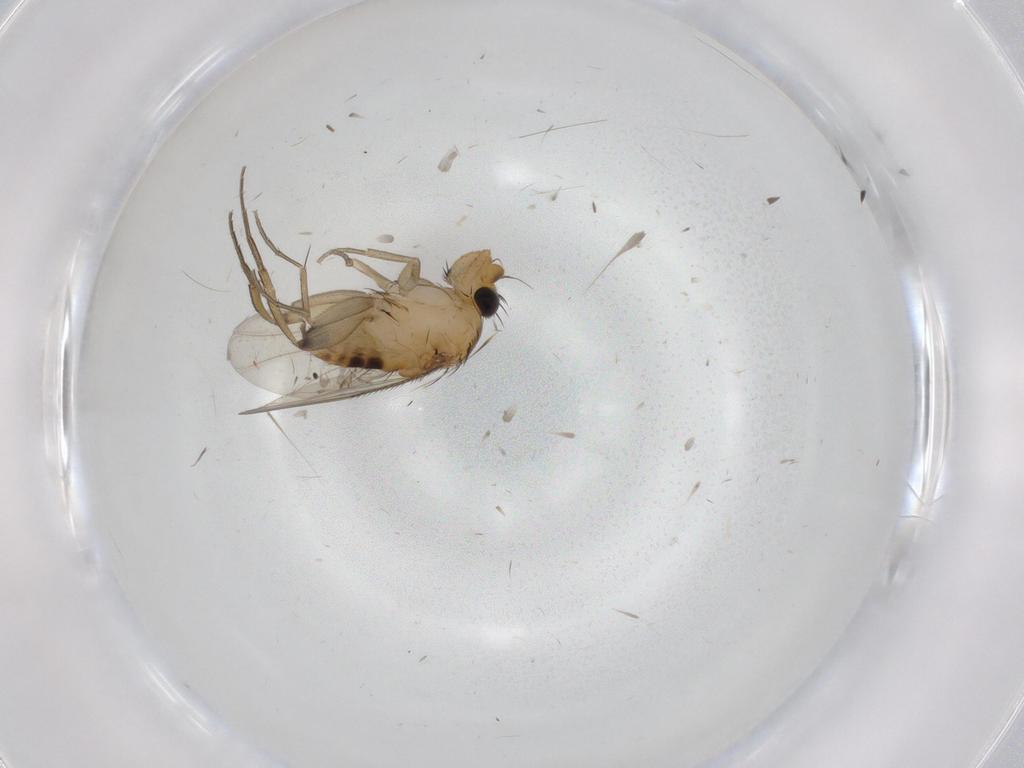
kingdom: Animalia
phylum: Arthropoda
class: Insecta
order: Diptera
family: Phoridae
